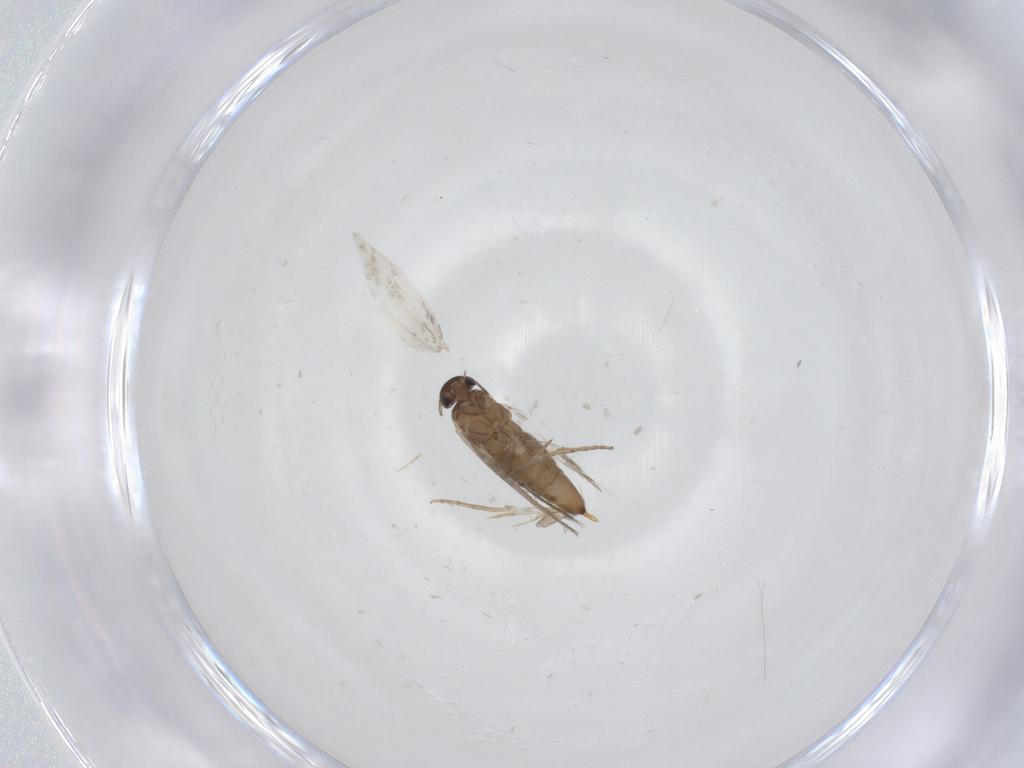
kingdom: Animalia
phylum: Arthropoda
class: Insecta
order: Lepidoptera
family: Heliozelidae
